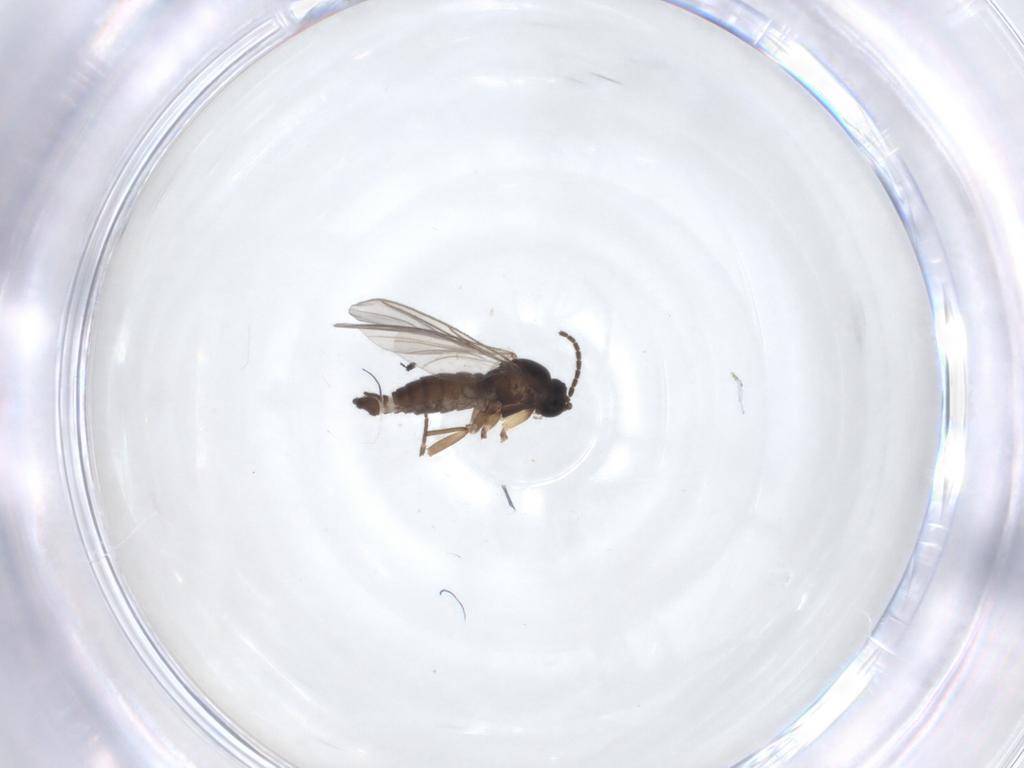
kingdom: Animalia
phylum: Arthropoda
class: Insecta
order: Diptera
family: Sciaridae
